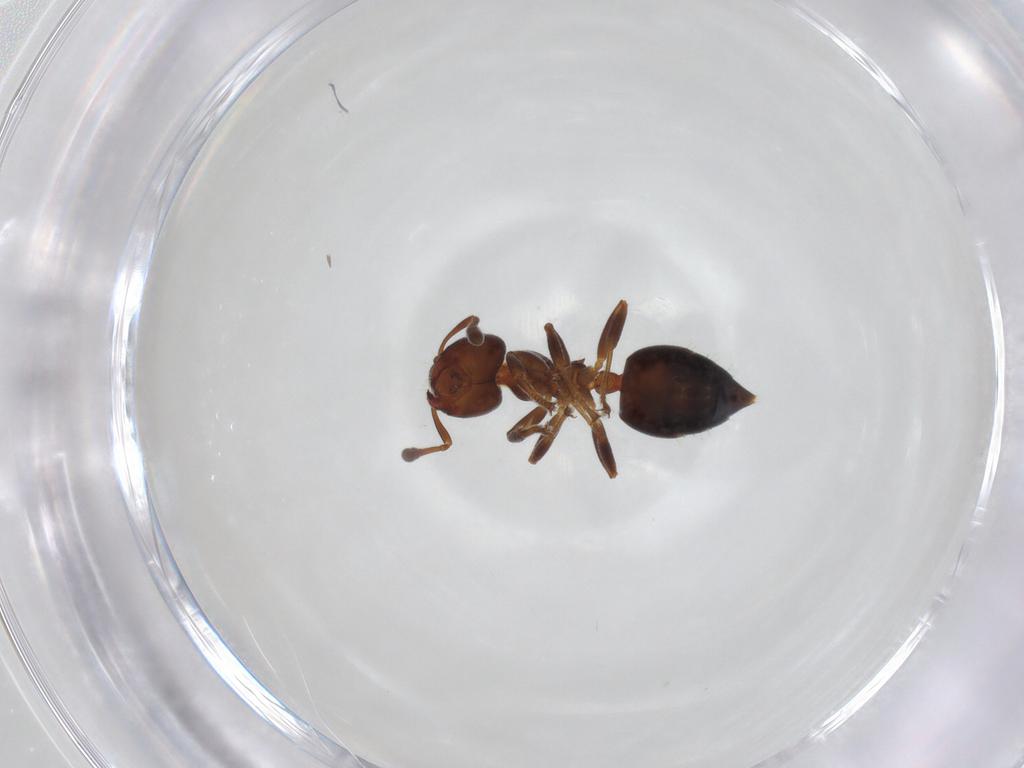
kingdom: Animalia
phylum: Arthropoda
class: Insecta
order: Hymenoptera
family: Formicidae
